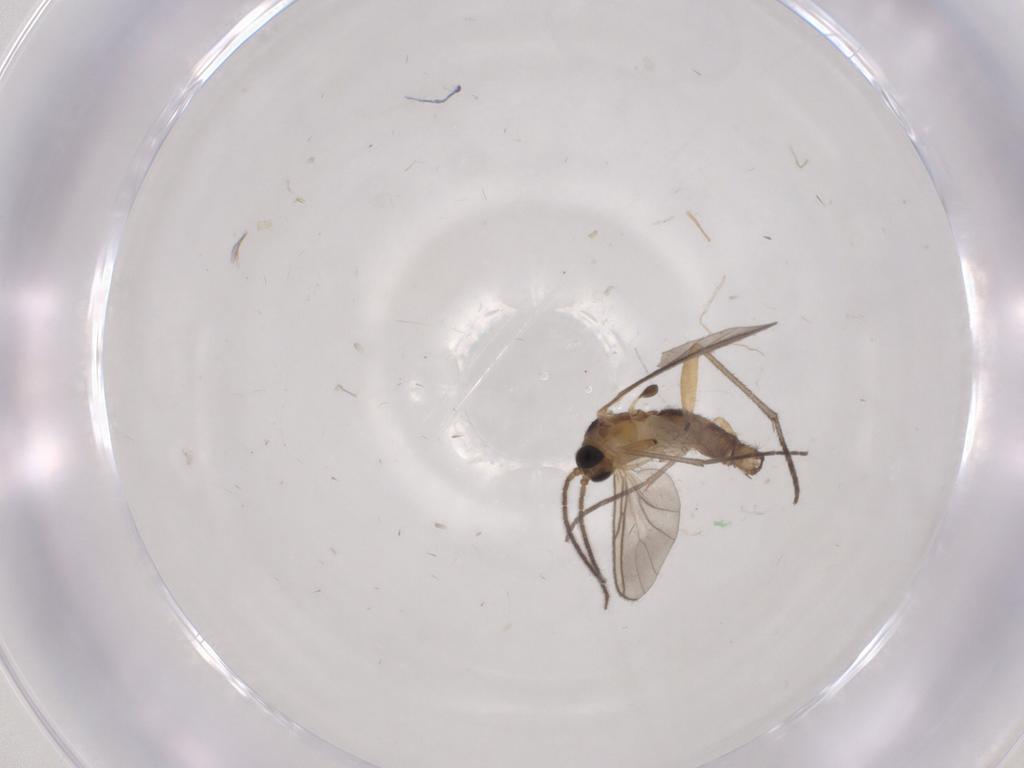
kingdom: Animalia
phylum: Arthropoda
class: Insecta
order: Diptera
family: Sciaridae
